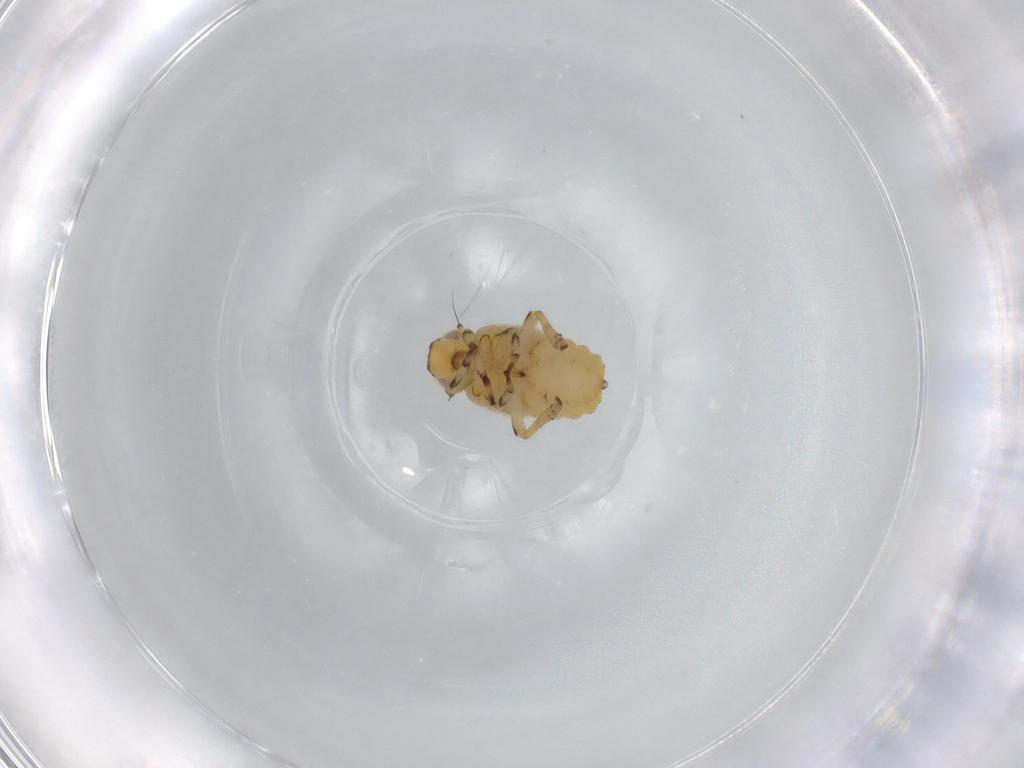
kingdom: Animalia
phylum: Arthropoda
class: Insecta
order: Hemiptera
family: Issidae
